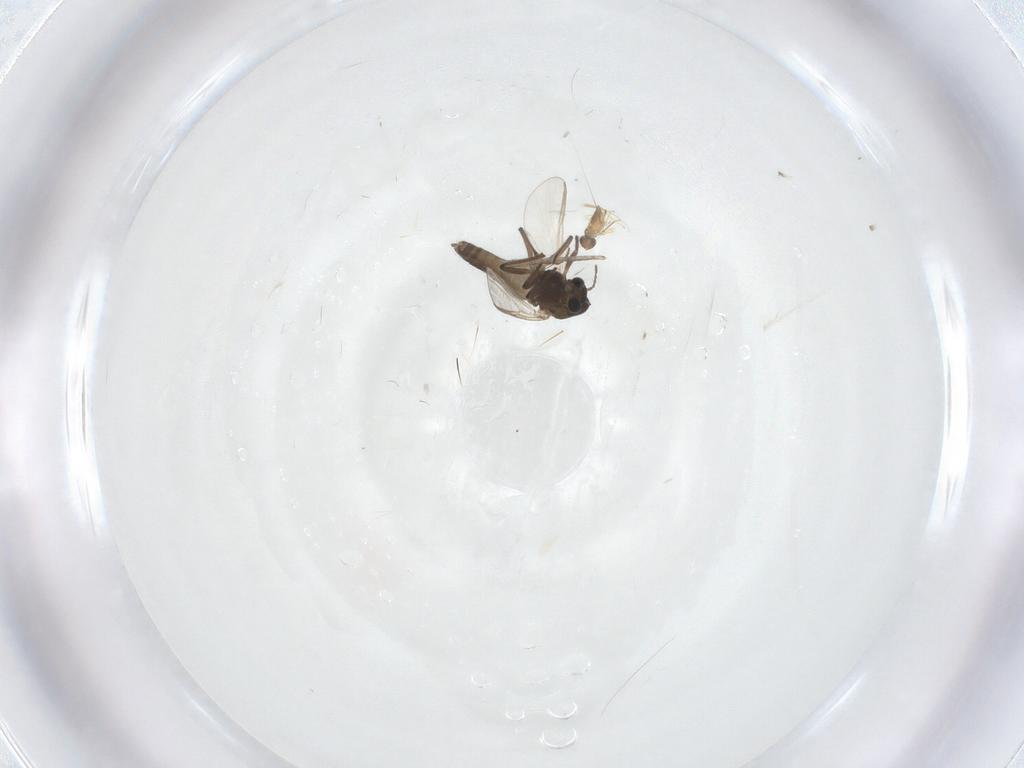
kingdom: Animalia
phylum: Arthropoda
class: Insecta
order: Diptera
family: Chironomidae
